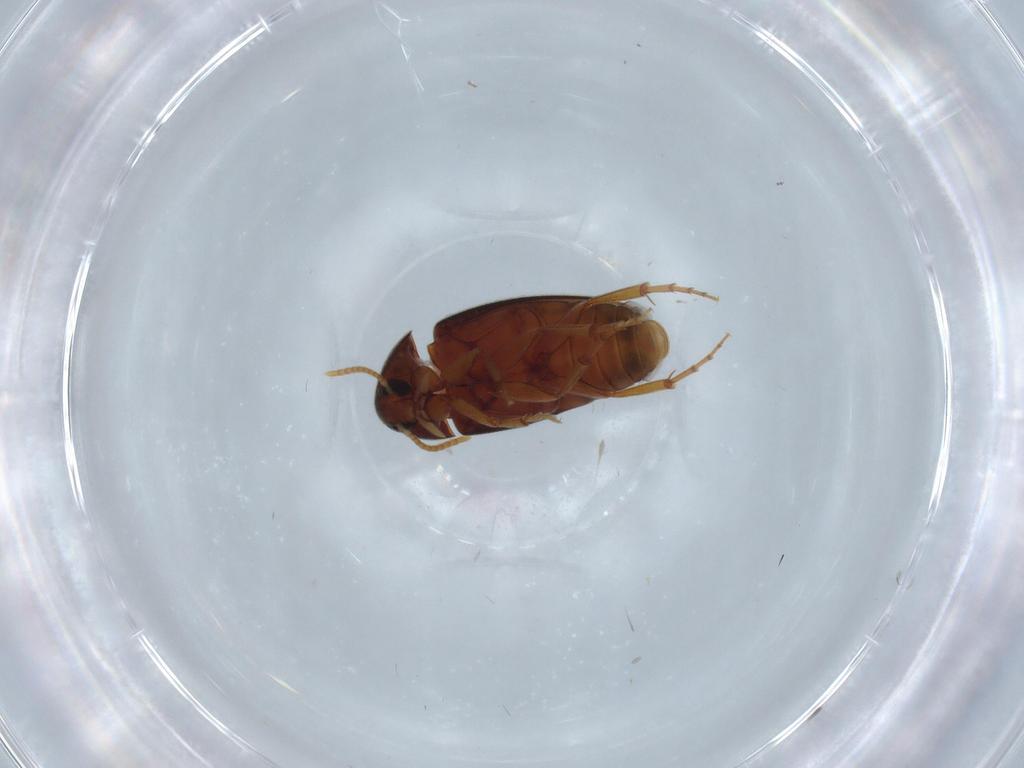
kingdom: Animalia
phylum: Arthropoda
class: Insecta
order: Coleoptera
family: Scraptiidae
